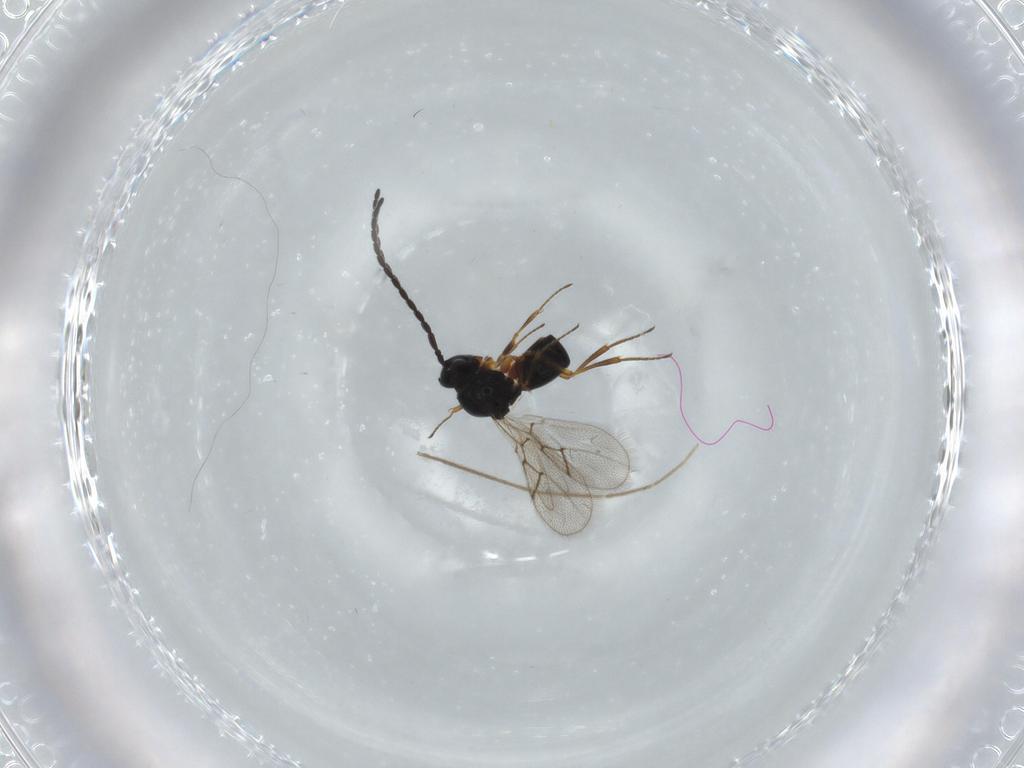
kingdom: Animalia
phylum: Arthropoda
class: Insecta
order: Hymenoptera
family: Figitidae
